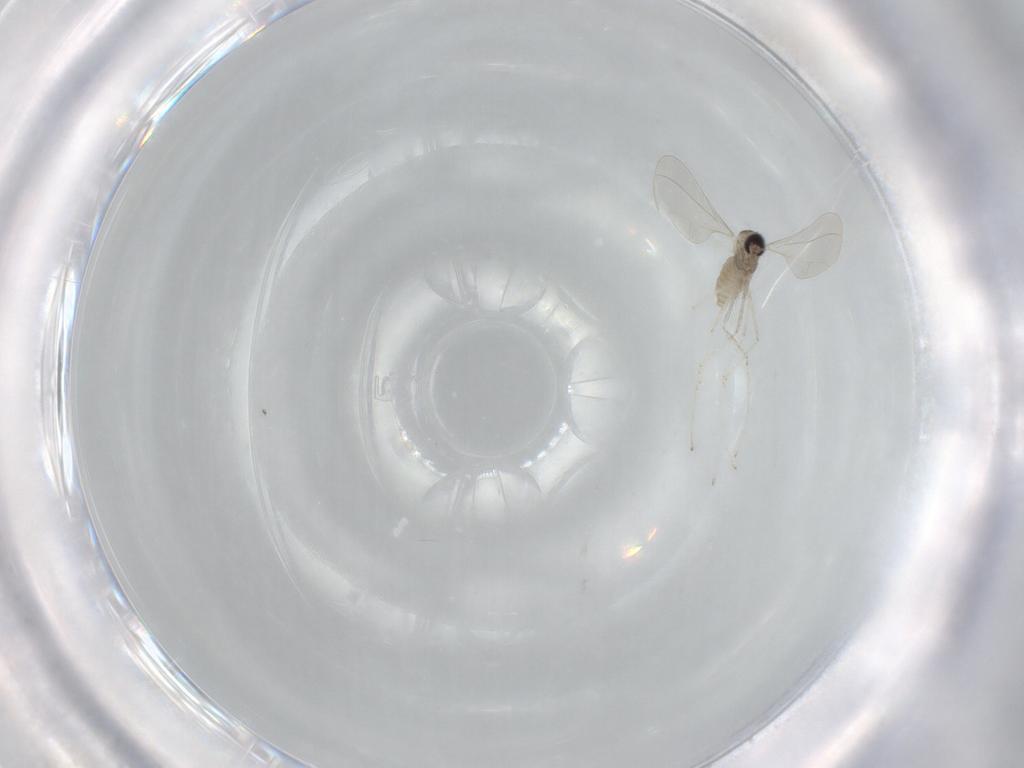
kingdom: Animalia
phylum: Arthropoda
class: Insecta
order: Diptera
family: Cecidomyiidae
